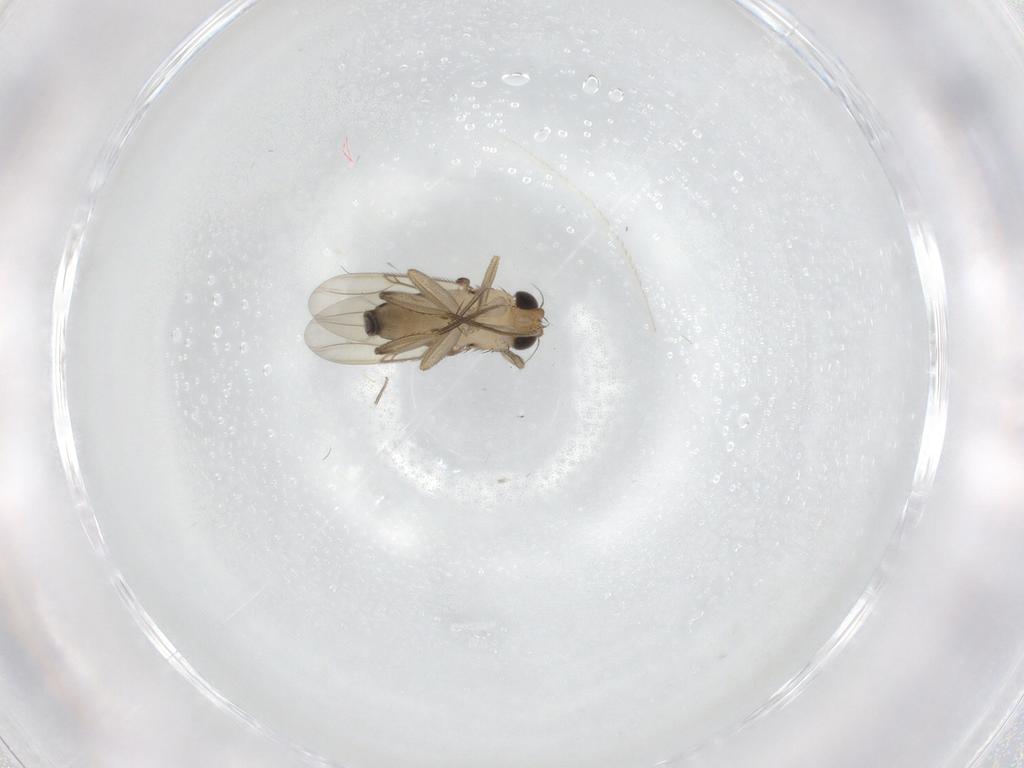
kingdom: Animalia
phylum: Arthropoda
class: Insecta
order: Diptera
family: Phoridae
